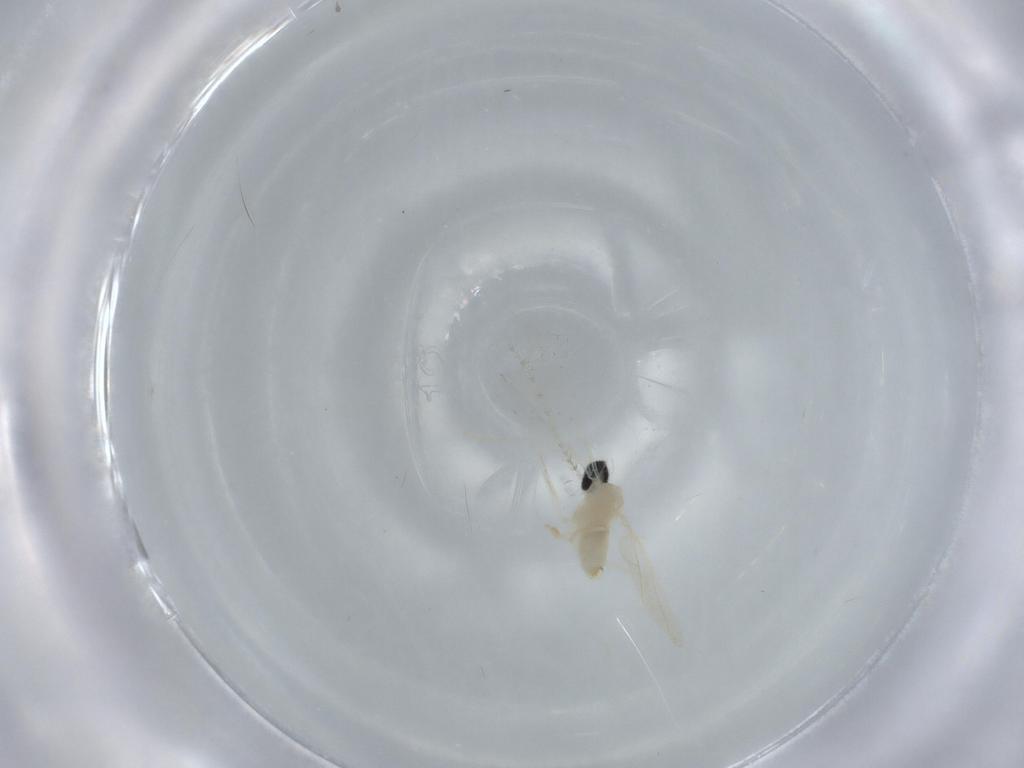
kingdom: Animalia
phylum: Arthropoda
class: Insecta
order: Diptera
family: Cecidomyiidae
